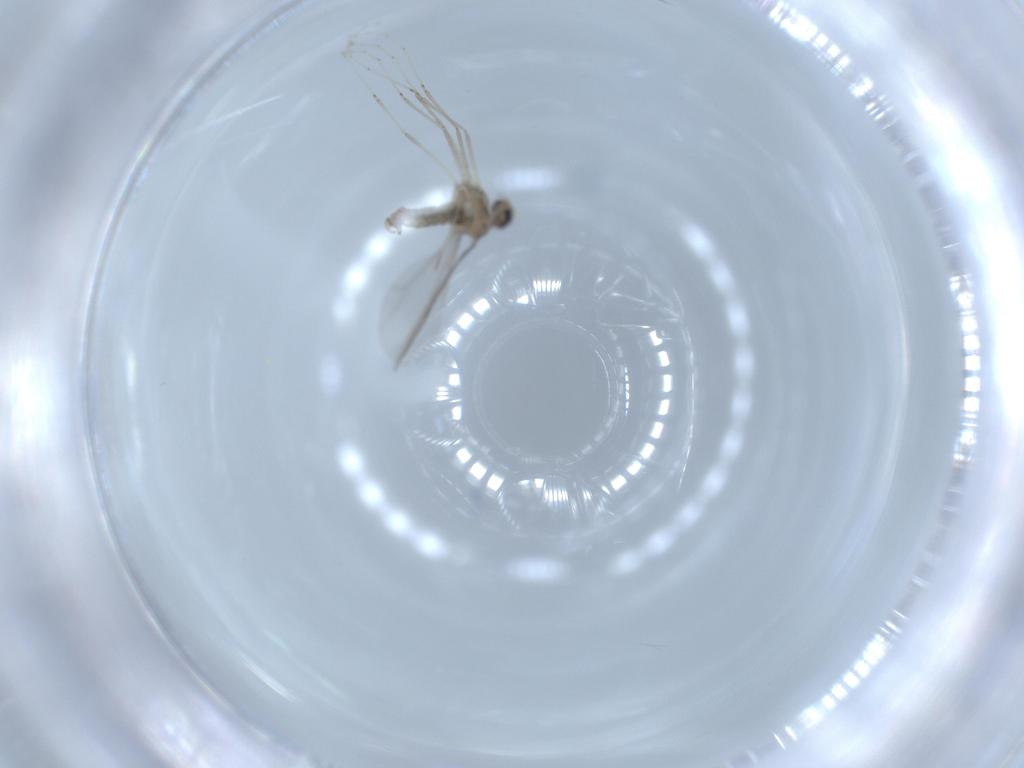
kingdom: Animalia
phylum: Arthropoda
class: Insecta
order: Diptera
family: Cecidomyiidae
